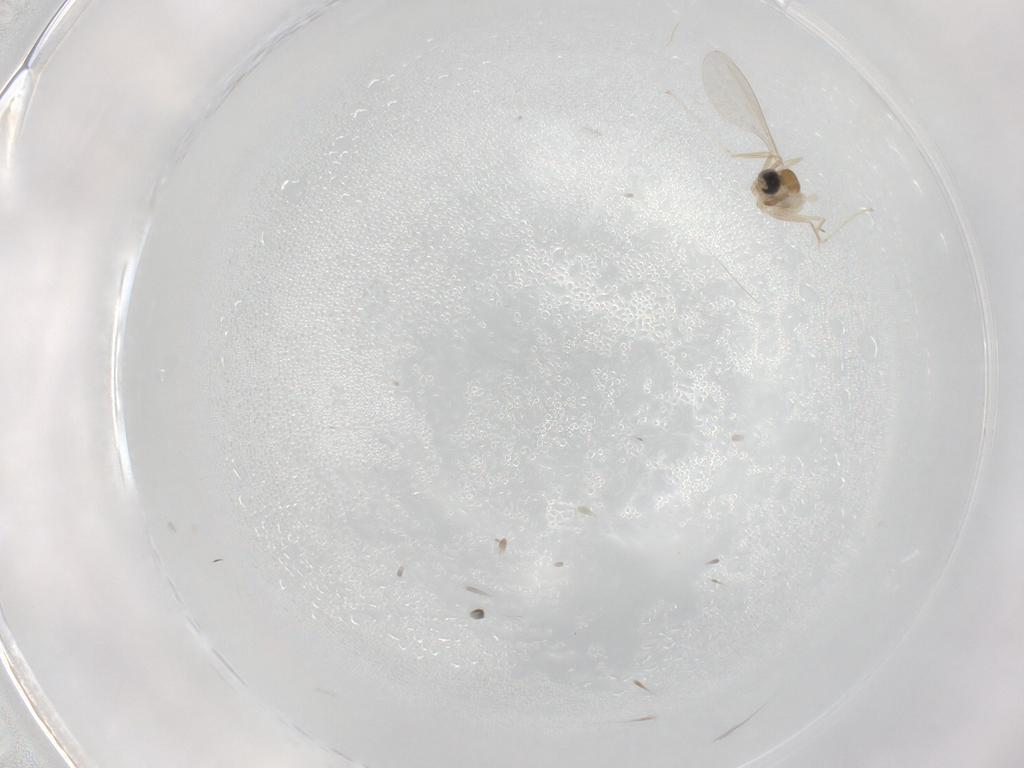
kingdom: Animalia
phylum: Arthropoda
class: Insecta
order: Diptera
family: Cecidomyiidae
